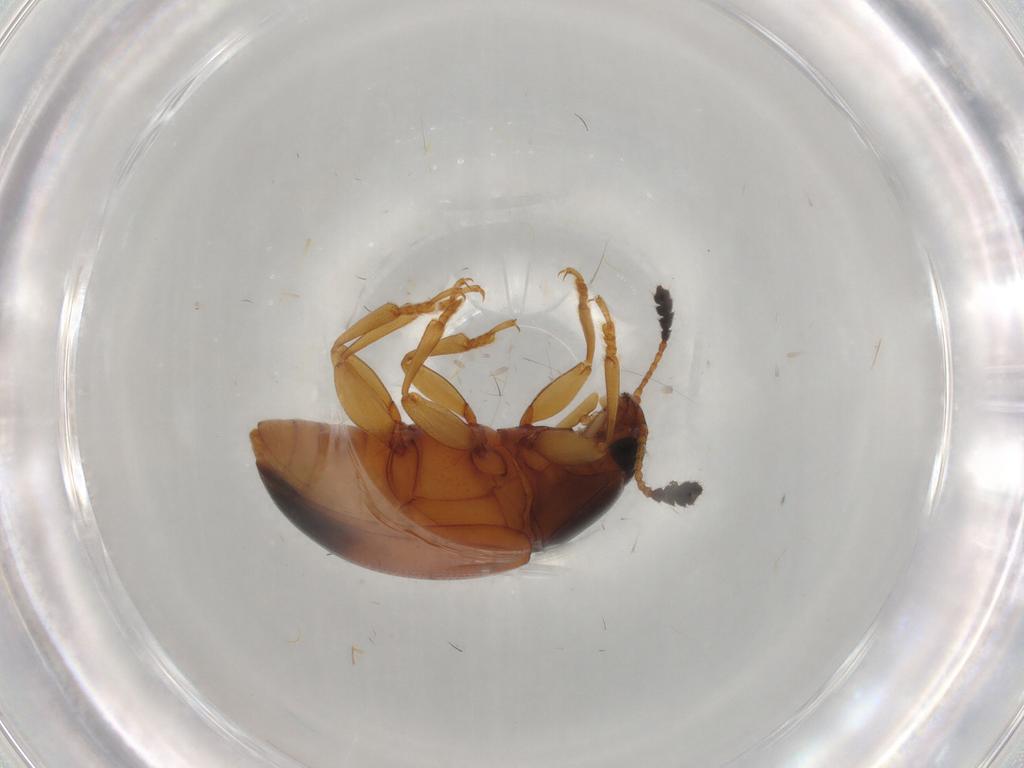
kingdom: Animalia
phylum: Arthropoda
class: Insecta
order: Coleoptera
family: Erotylidae
